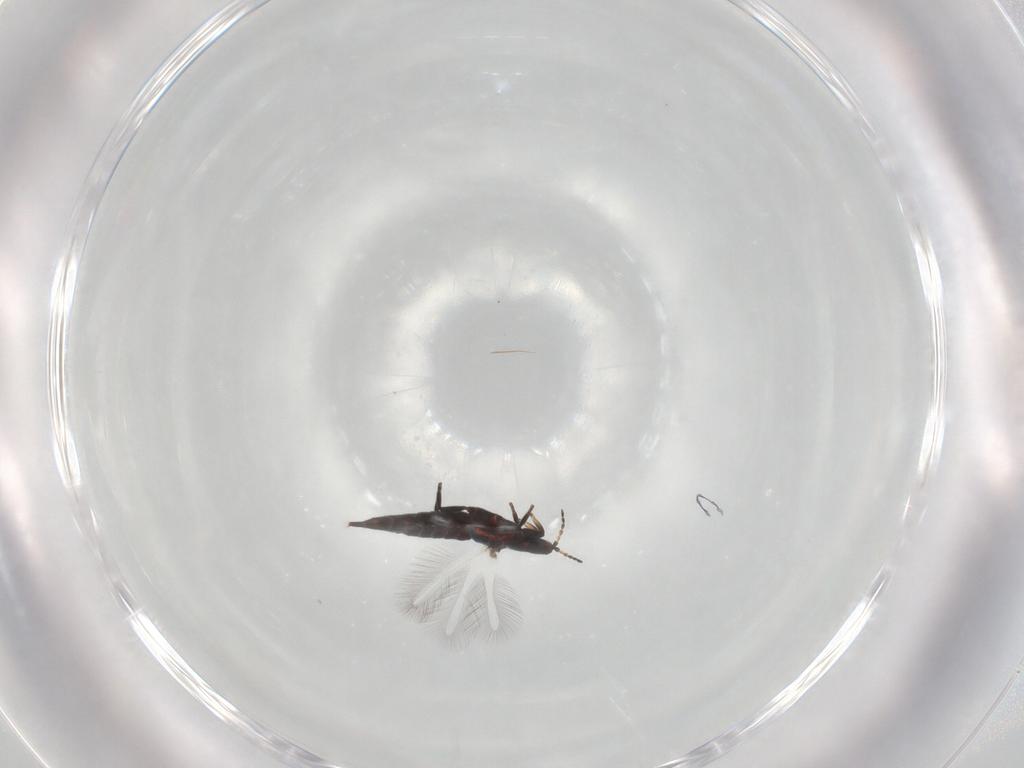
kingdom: Animalia
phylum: Arthropoda
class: Insecta
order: Thysanoptera
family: Phlaeothripidae
